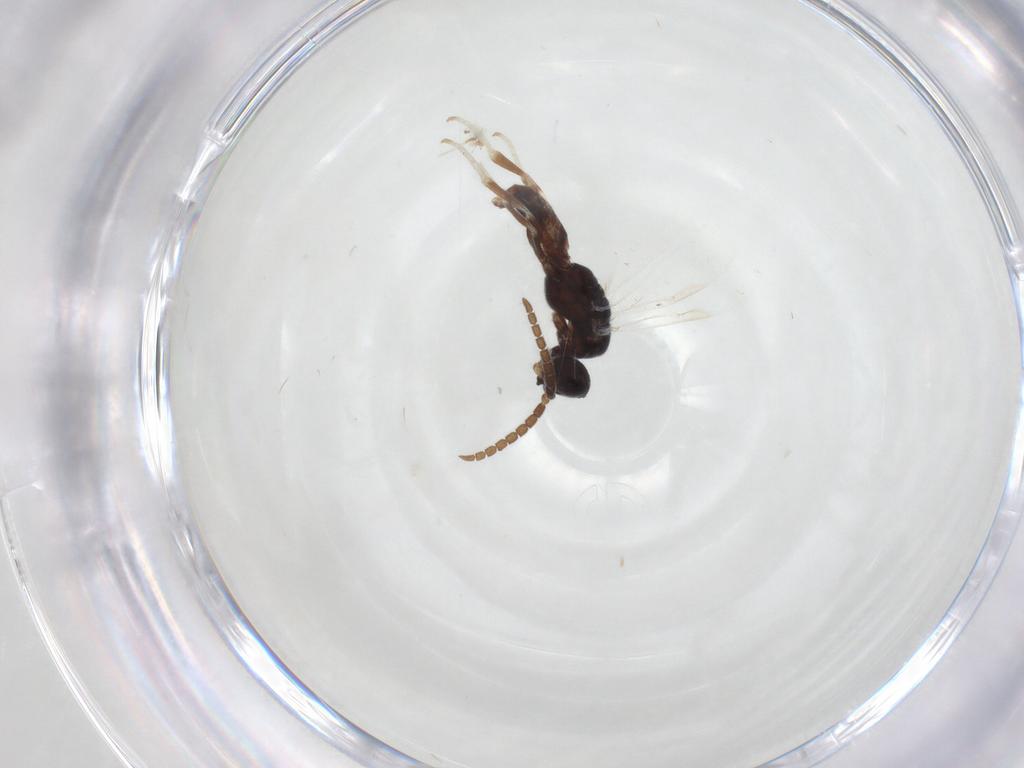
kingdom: Animalia
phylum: Arthropoda
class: Insecta
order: Hymenoptera
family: Dryinidae
